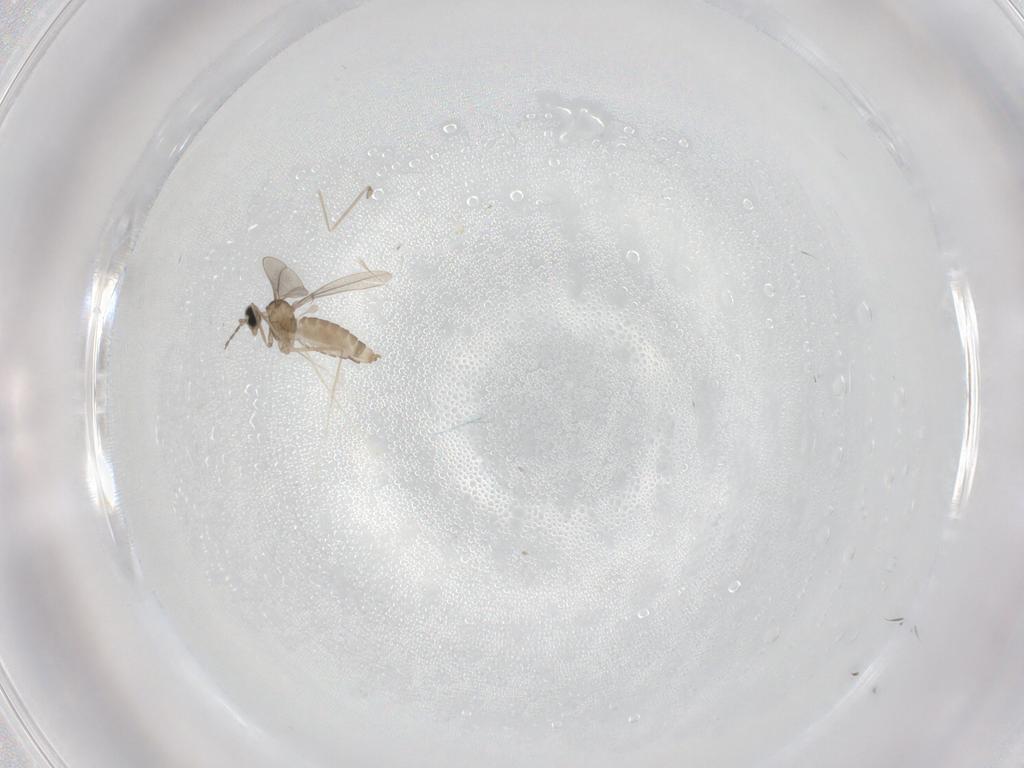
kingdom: Animalia
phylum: Arthropoda
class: Insecta
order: Diptera
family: Cecidomyiidae
